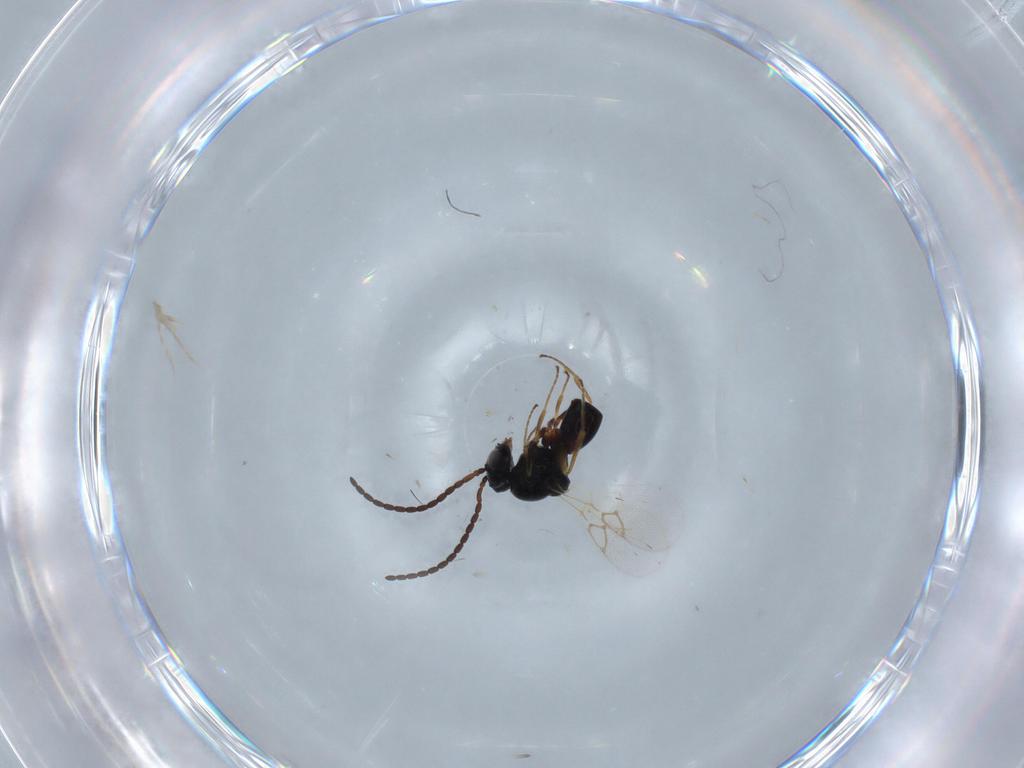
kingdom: Animalia
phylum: Arthropoda
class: Insecta
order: Hymenoptera
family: Figitidae
